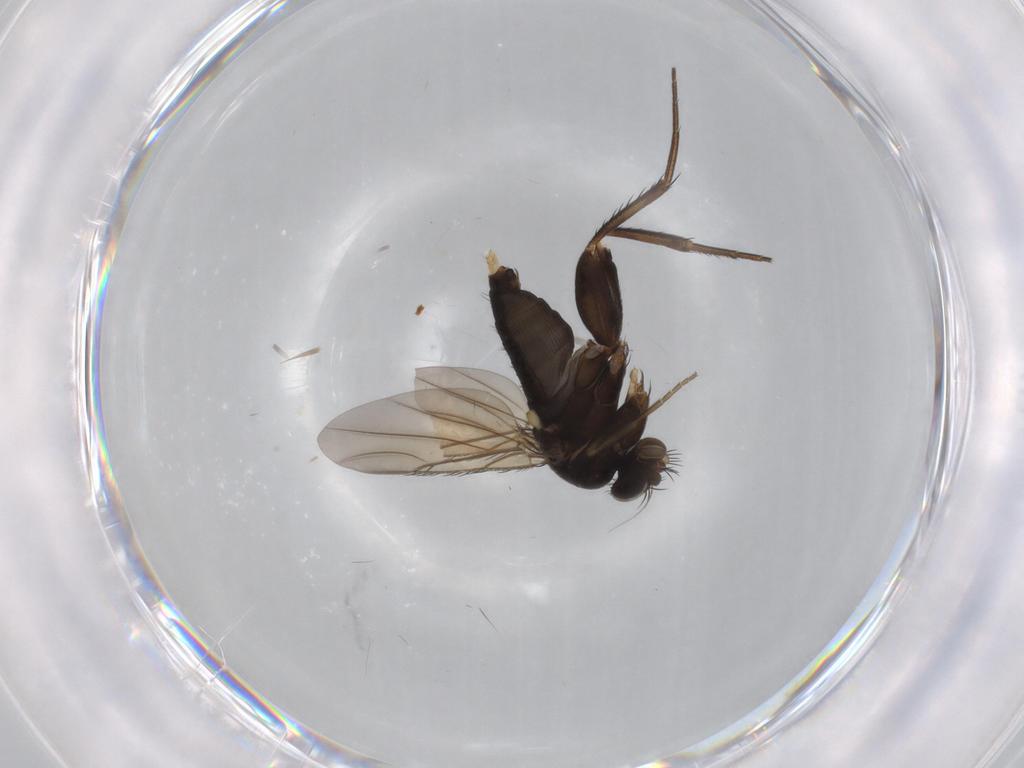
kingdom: Animalia
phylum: Arthropoda
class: Insecta
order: Diptera
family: Phoridae
